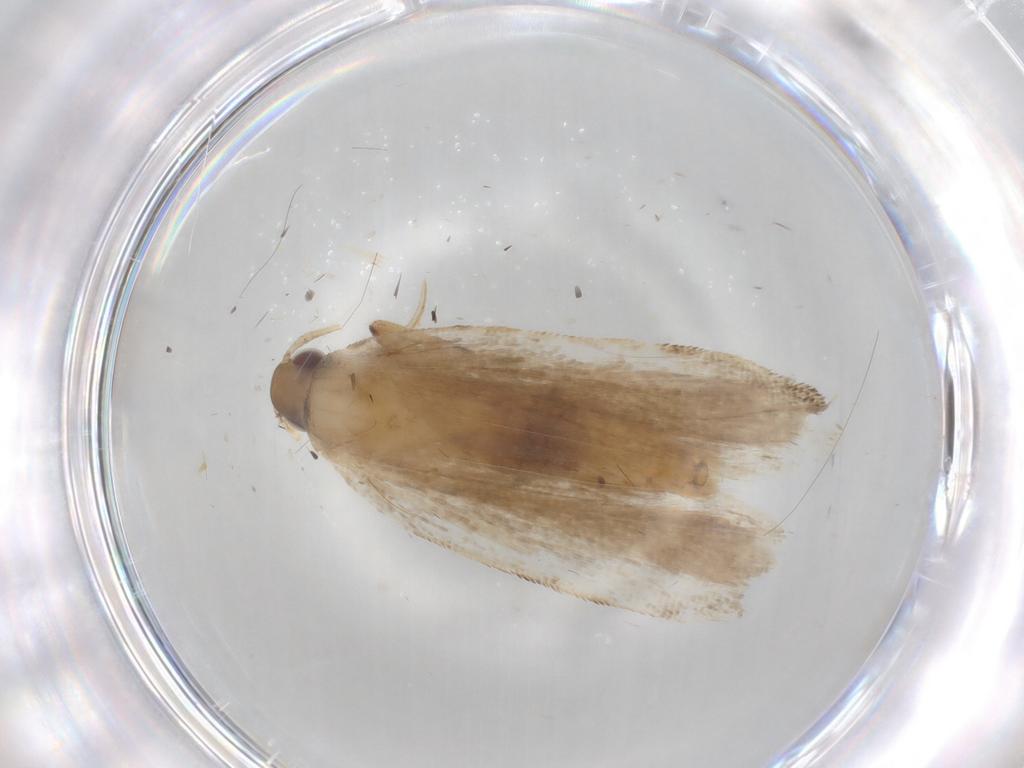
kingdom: Animalia
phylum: Arthropoda
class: Insecta
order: Lepidoptera
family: Gelechiidae
